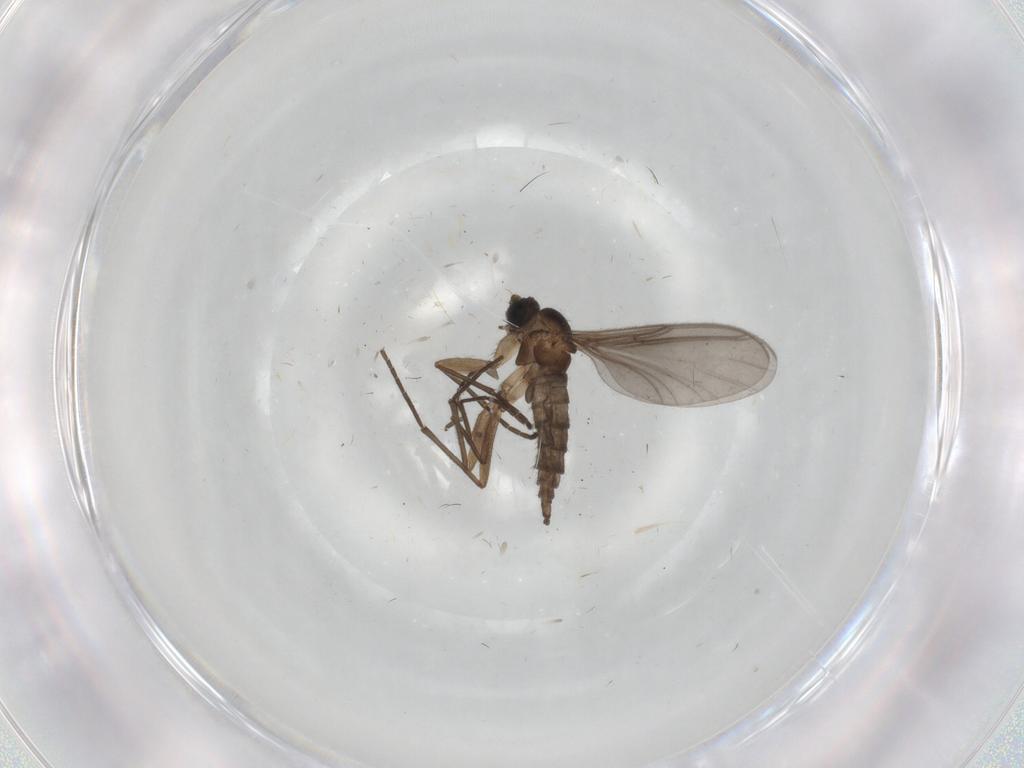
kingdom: Animalia
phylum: Arthropoda
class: Insecta
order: Diptera
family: Sciaridae
